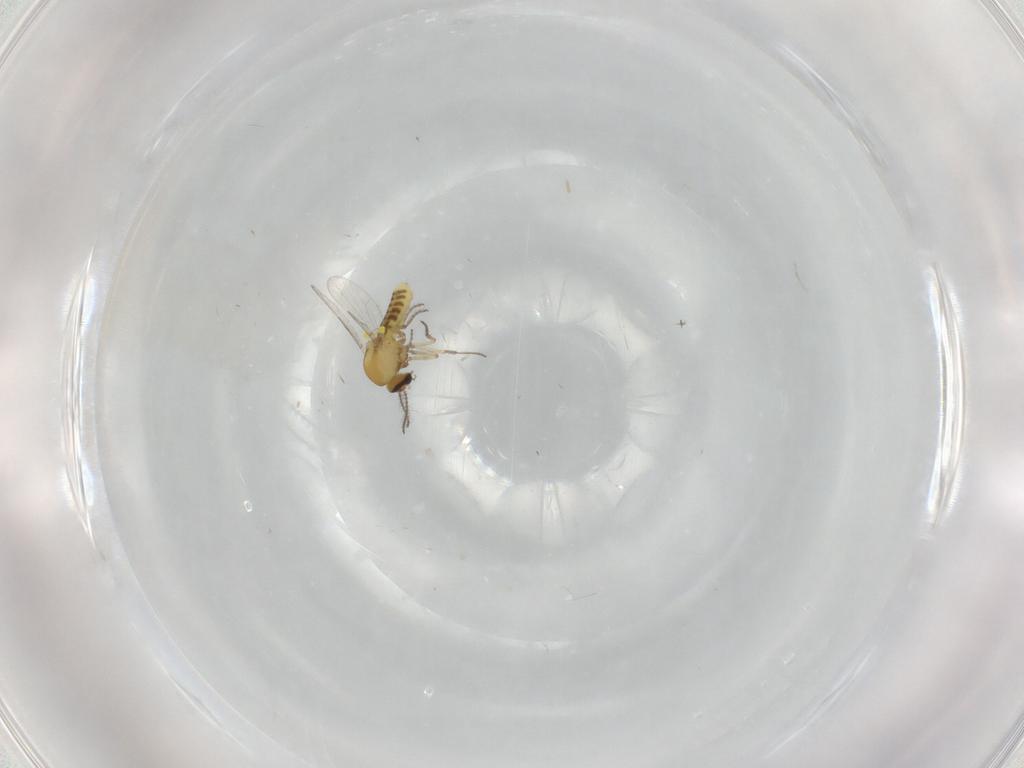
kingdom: Animalia
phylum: Arthropoda
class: Insecta
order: Diptera
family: Ceratopogonidae
